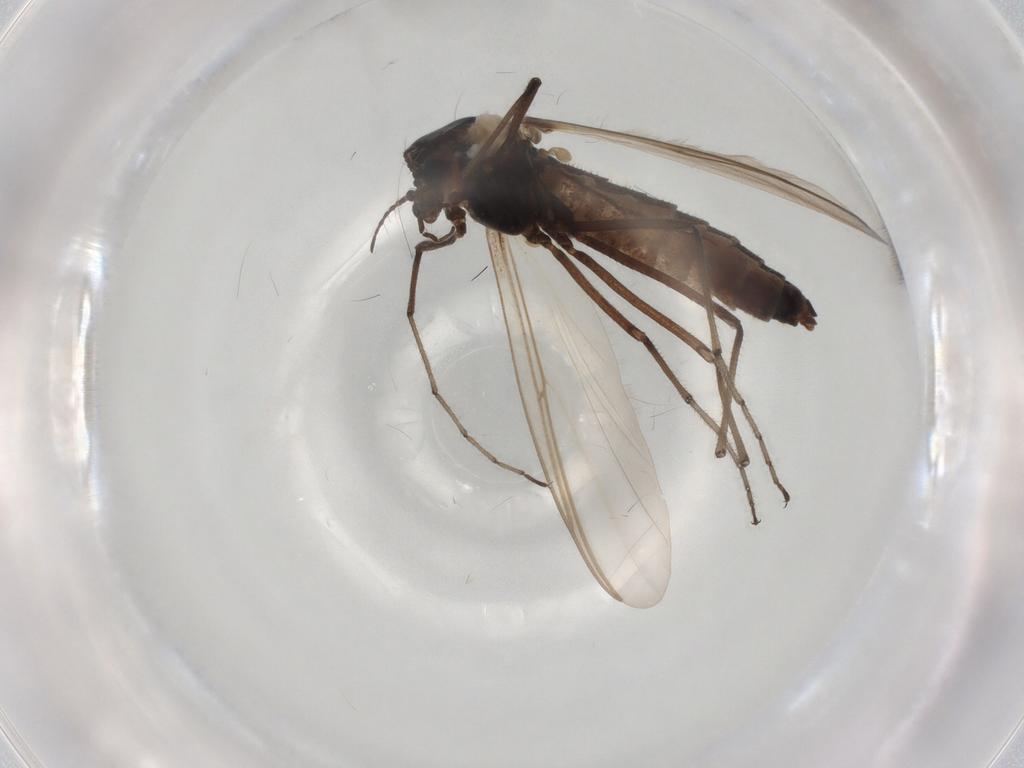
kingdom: Animalia
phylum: Arthropoda
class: Insecta
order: Diptera
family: Chironomidae
